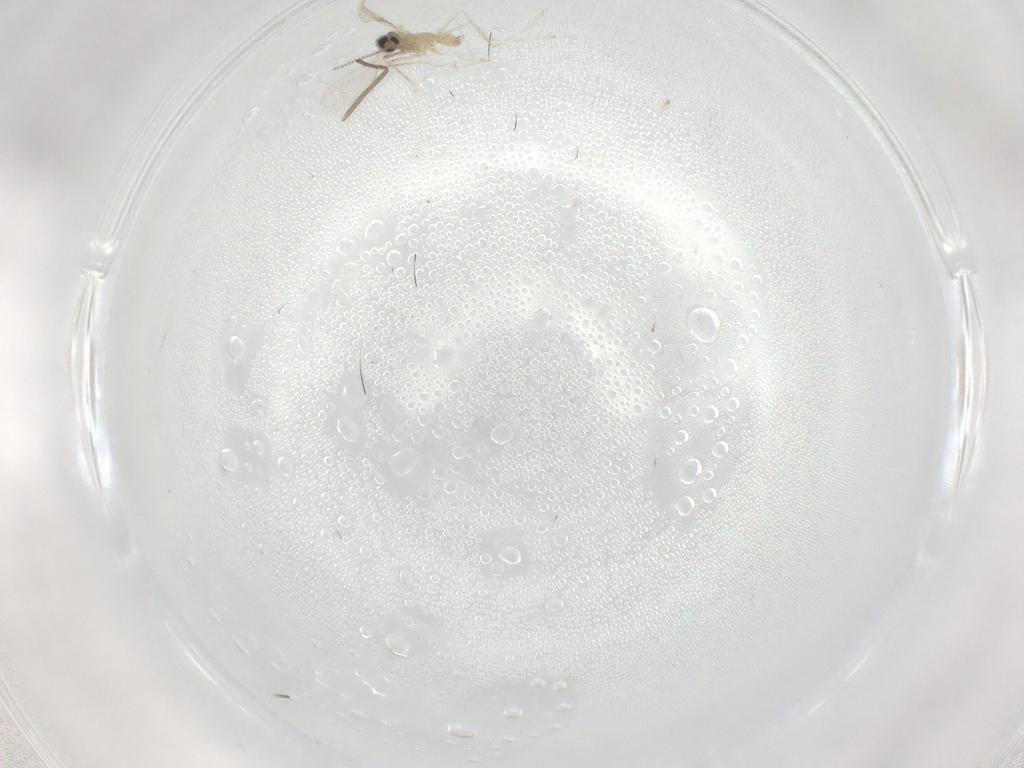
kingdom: Animalia
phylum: Arthropoda
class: Insecta
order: Diptera
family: Cecidomyiidae
